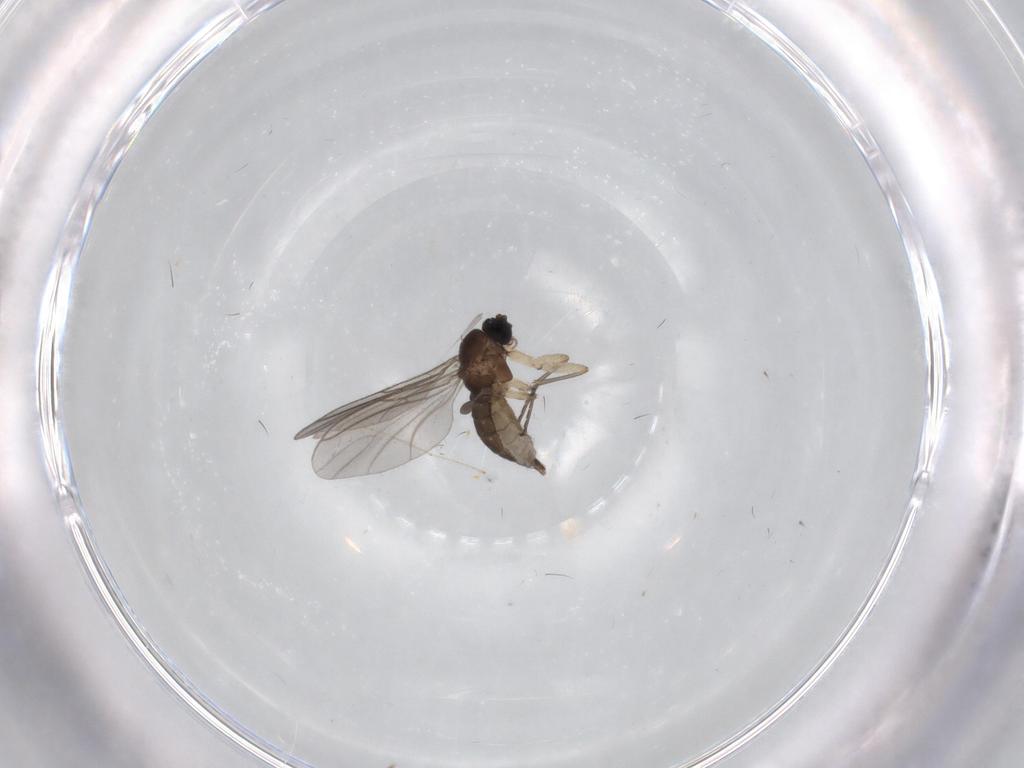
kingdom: Animalia
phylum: Arthropoda
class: Insecta
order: Diptera
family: Sciaridae
